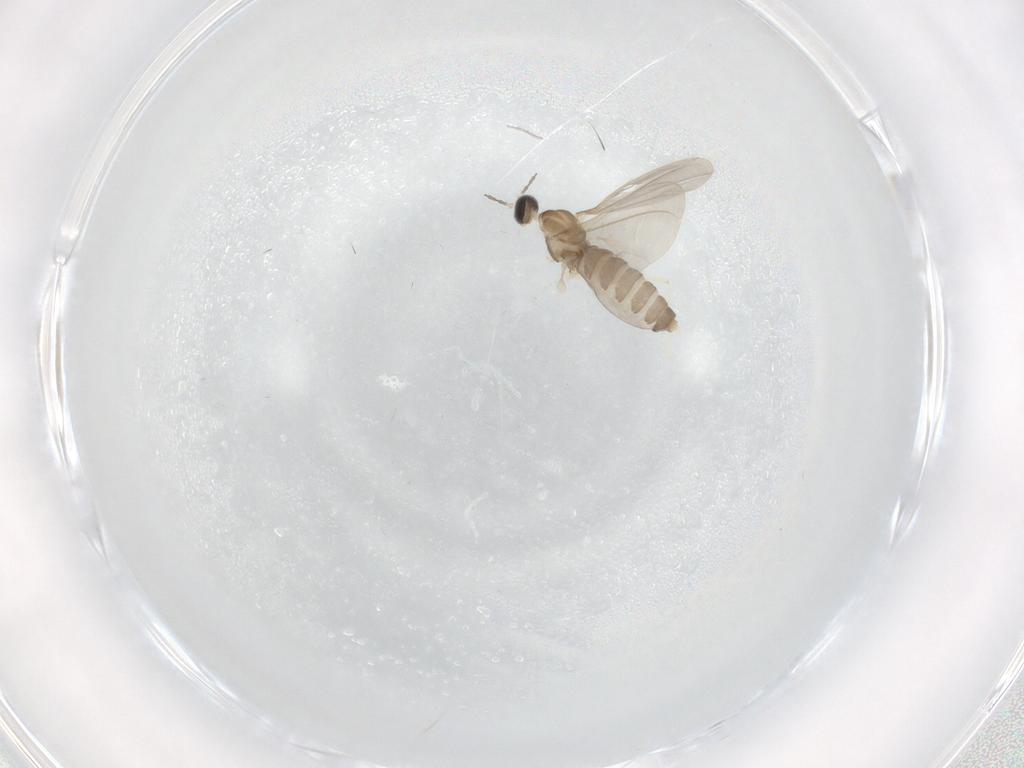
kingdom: Animalia
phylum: Arthropoda
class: Insecta
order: Diptera
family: Cecidomyiidae
